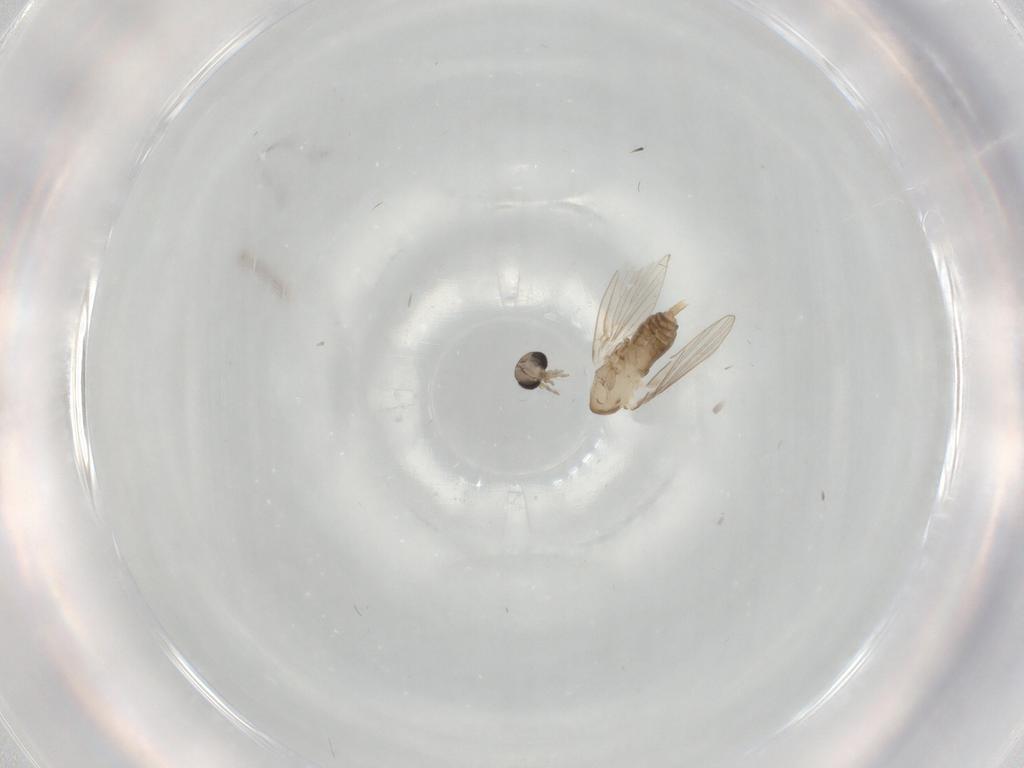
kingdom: Animalia
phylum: Arthropoda
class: Insecta
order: Diptera
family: Psychodidae
